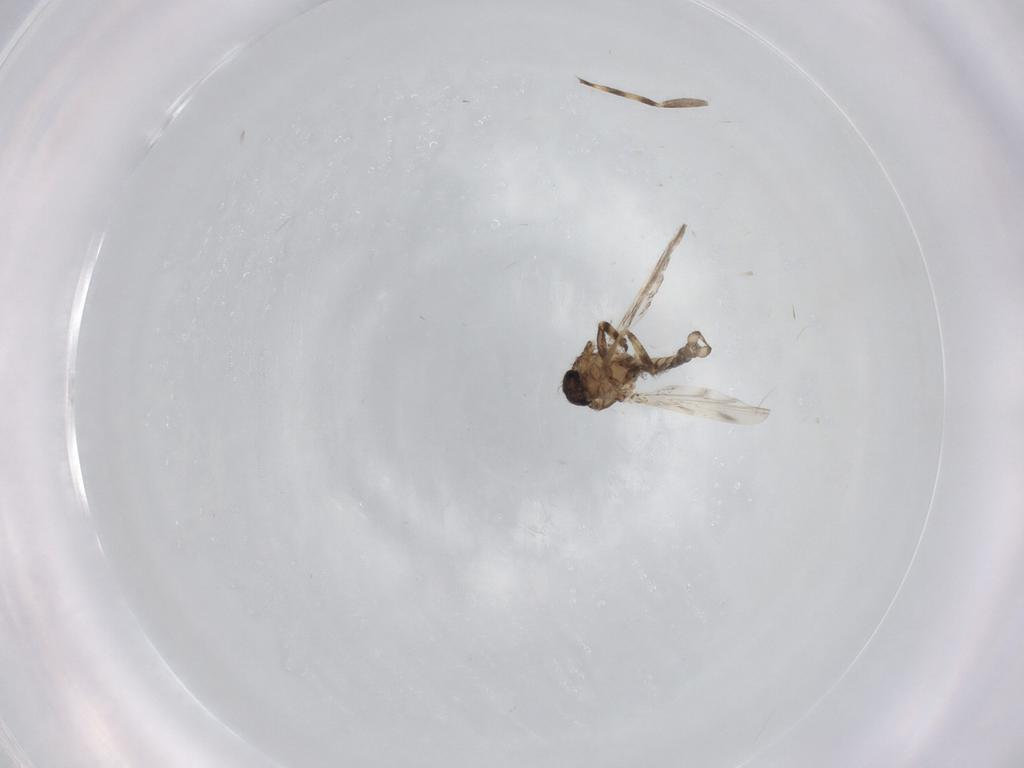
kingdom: Animalia
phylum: Arthropoda
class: Insecta
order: Diptera
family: Ceratopogonidae
